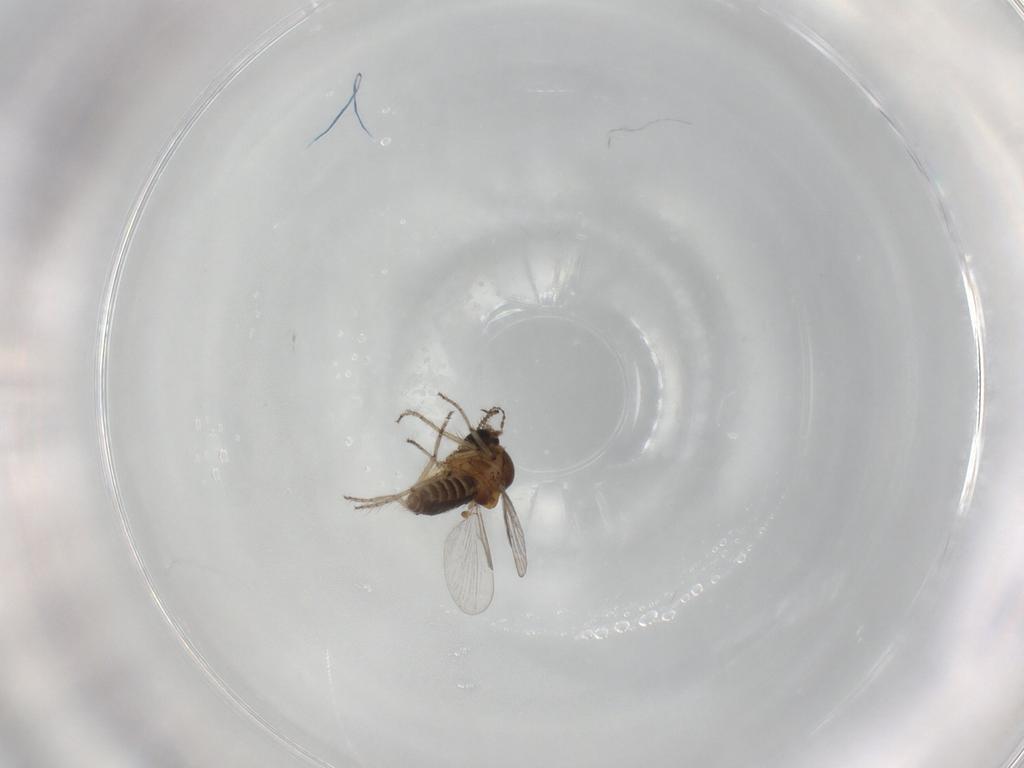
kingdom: Animalia
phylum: Arthropoda
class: Insecta
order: Diptera
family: Ceratopogonidae
